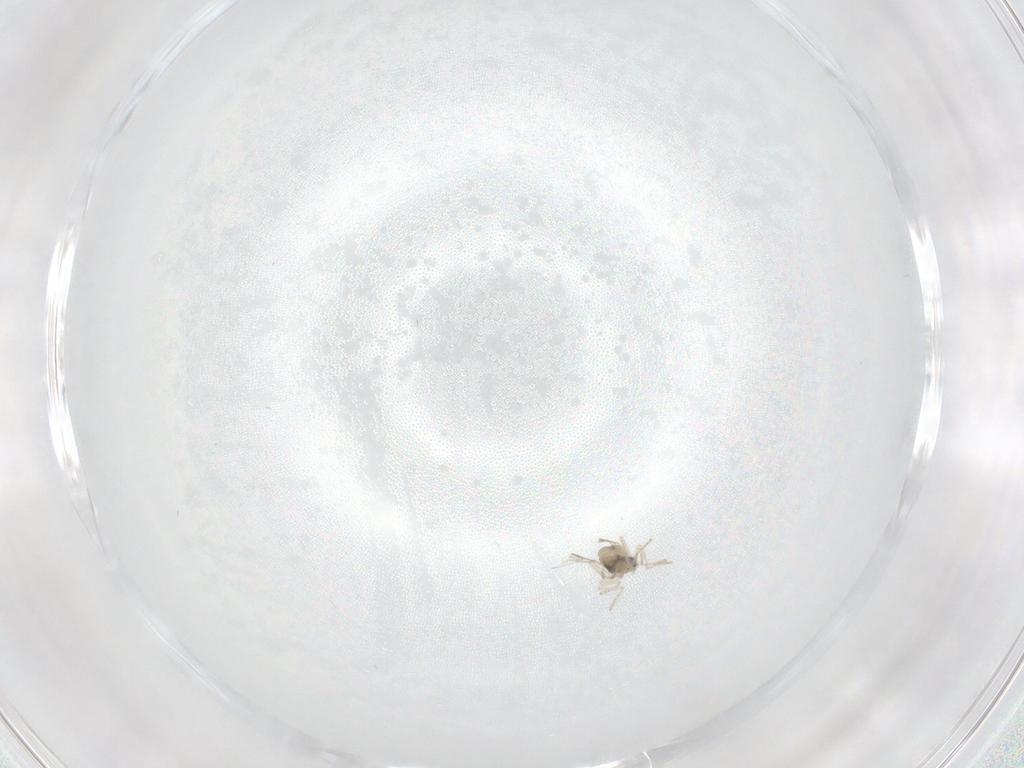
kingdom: Animalia
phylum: Arthropoda
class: Insecta
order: Diptera
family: Cecidomyiidae
